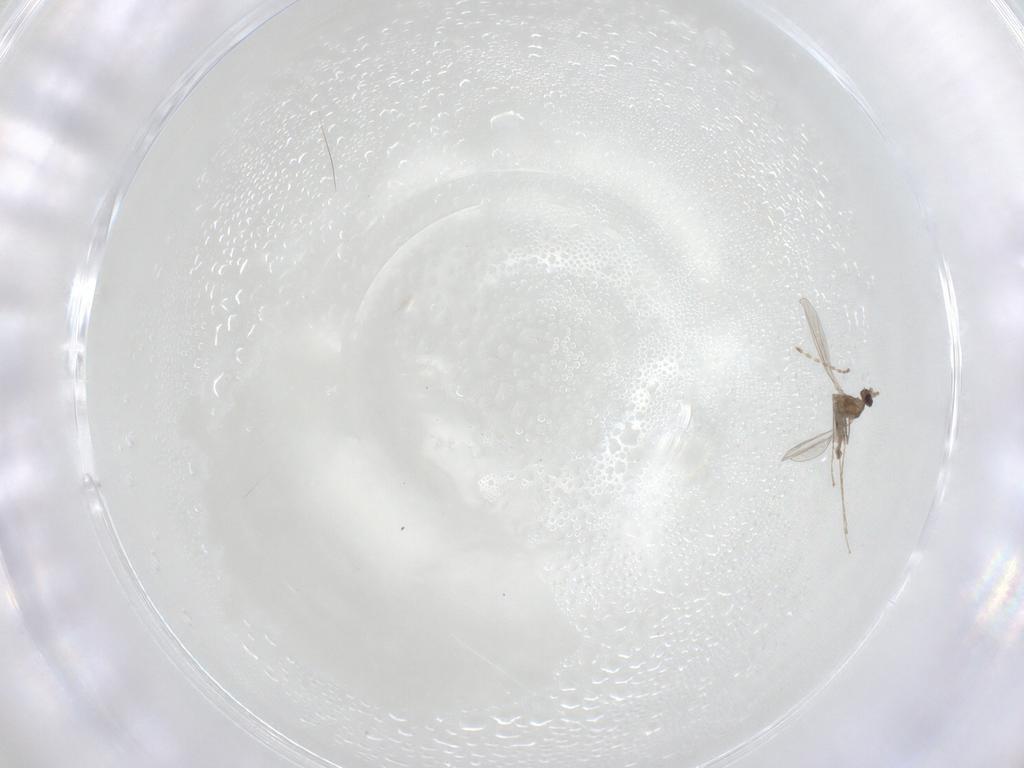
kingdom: Animalia
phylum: Arthropoda
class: Insecta
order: Diptera
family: Cecidomyiidae
